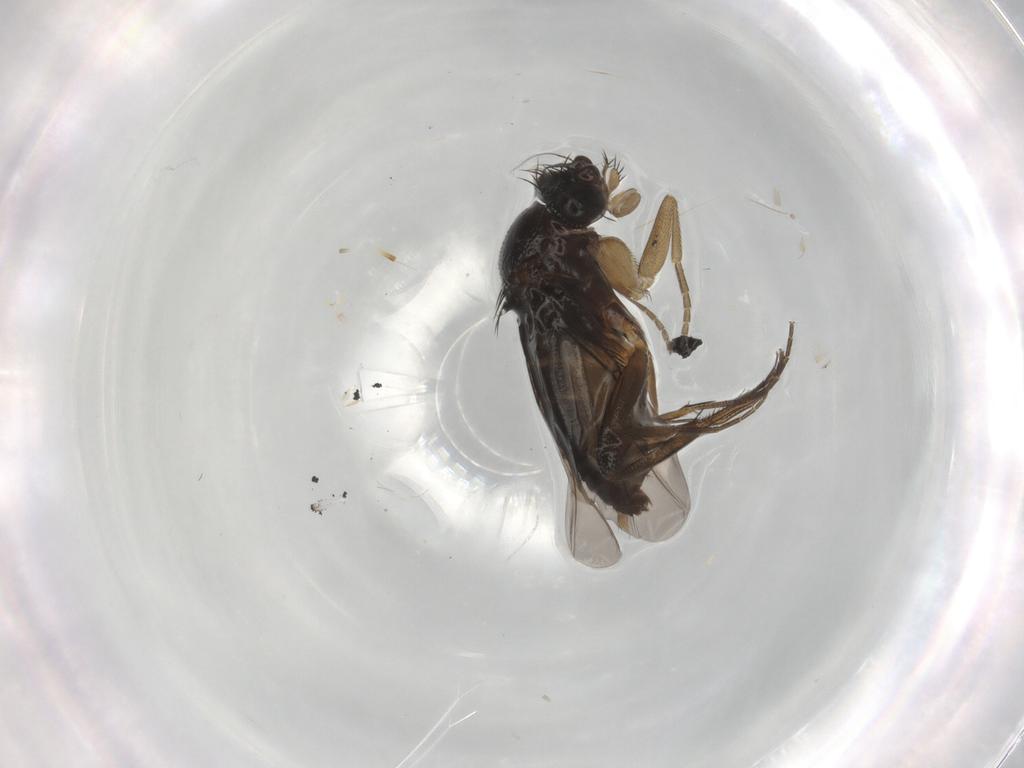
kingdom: Animalia
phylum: Arthropoda
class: Insecta
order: Diptera
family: Phoridae
